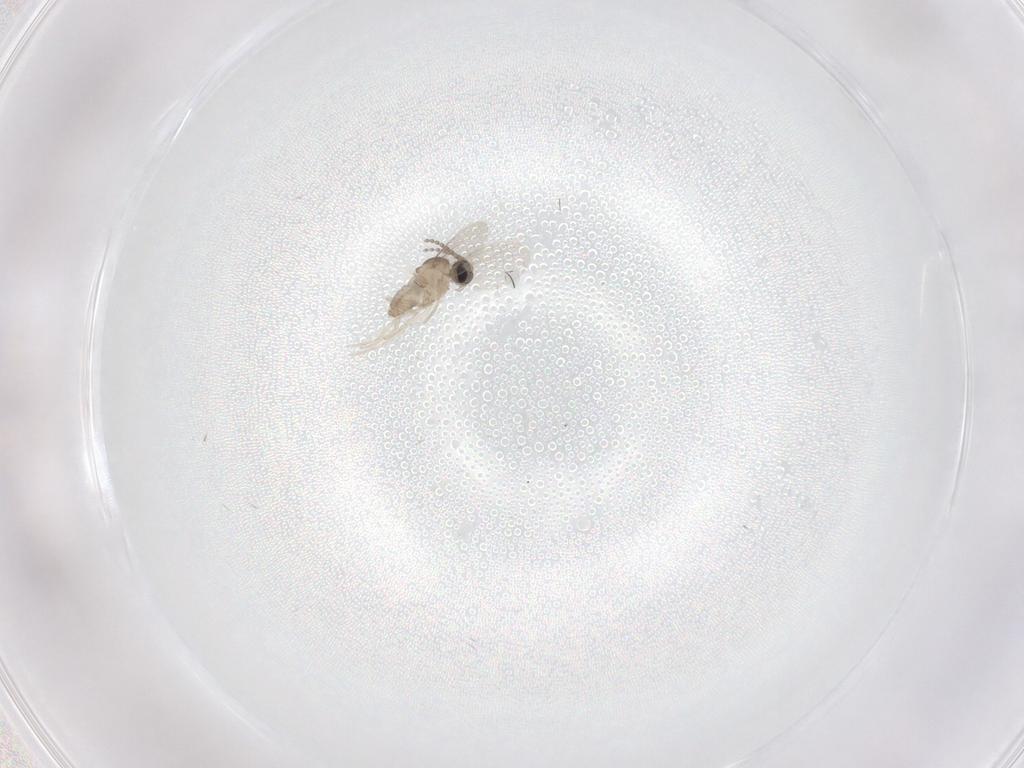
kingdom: Animalia
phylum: Arthropoda
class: Insecta
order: Diptera
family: Cecidomyiidae
